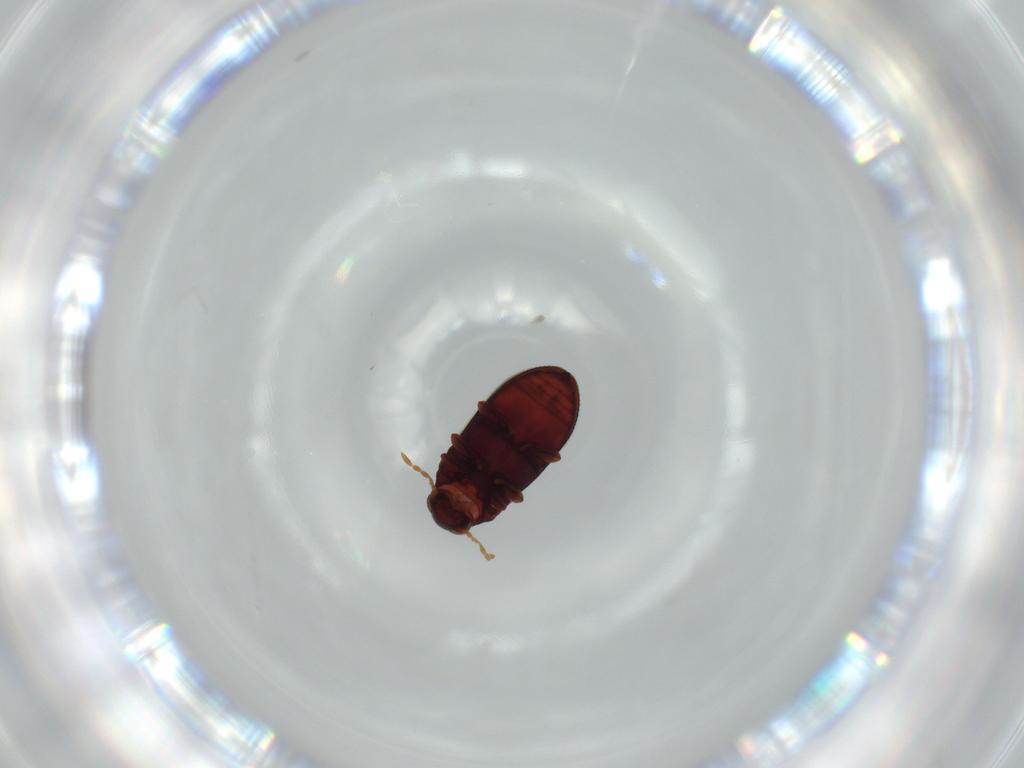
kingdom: Animalia
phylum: Arthropoda
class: Insecta
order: Coleoptera
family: Anobiidae
